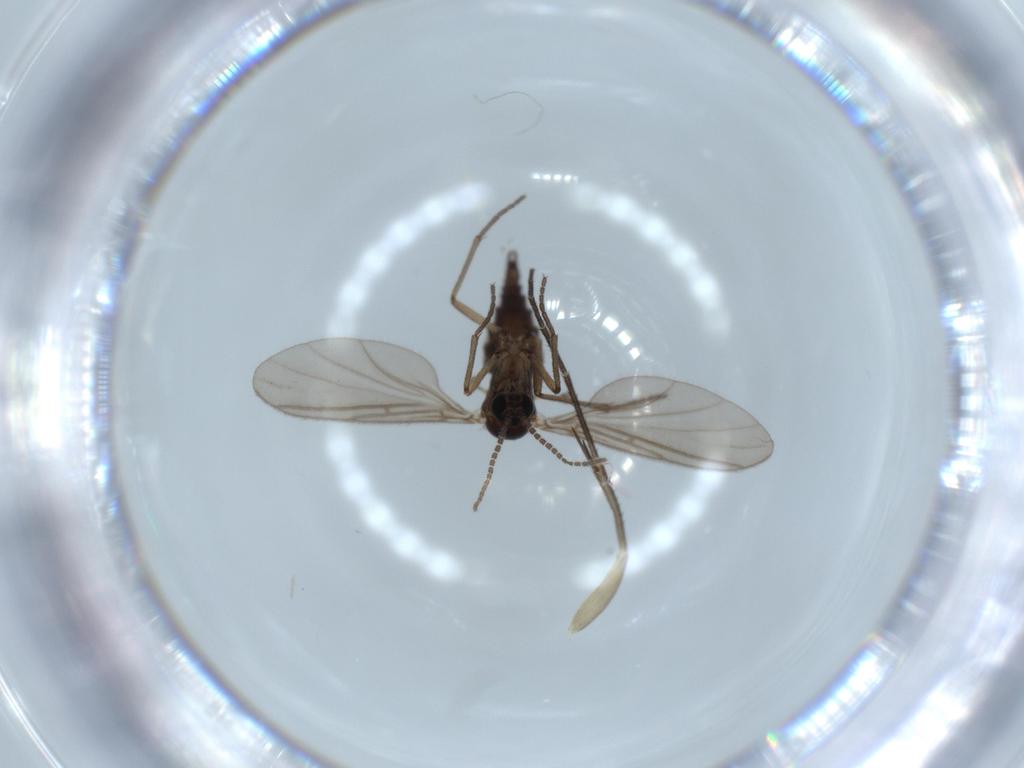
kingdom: Animalia
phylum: Arthropoda
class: Insecta
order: Diptera
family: Sciaridae
